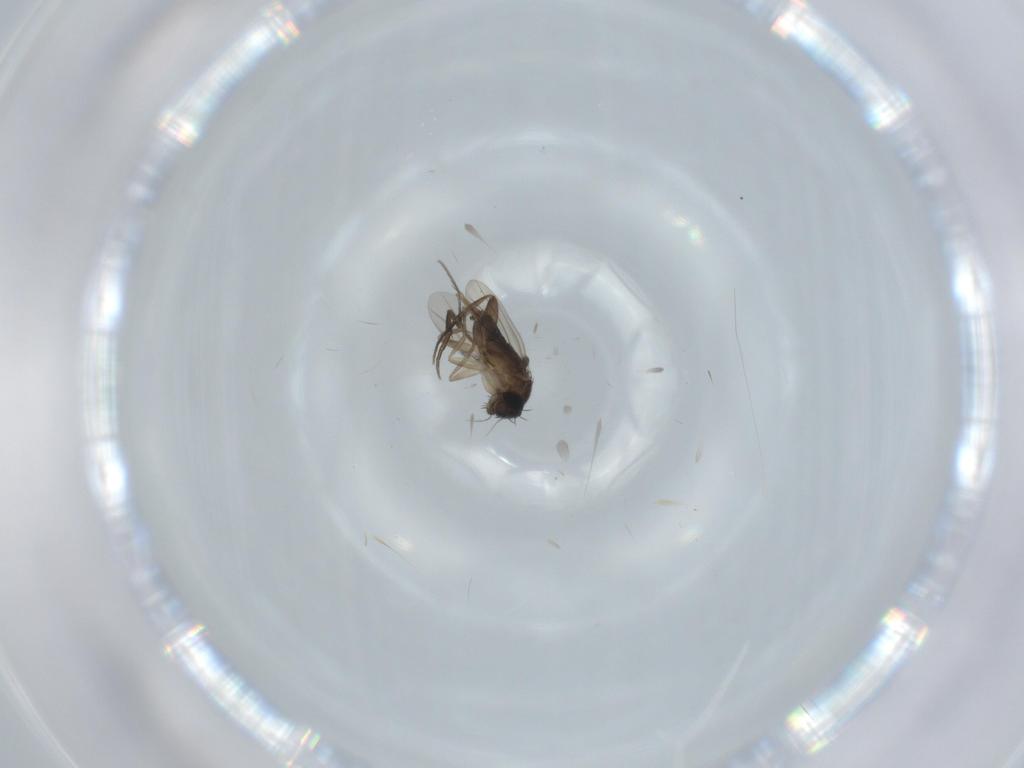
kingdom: Animalia
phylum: Arthropoda
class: Insecta
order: Diptera
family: Phoridae
